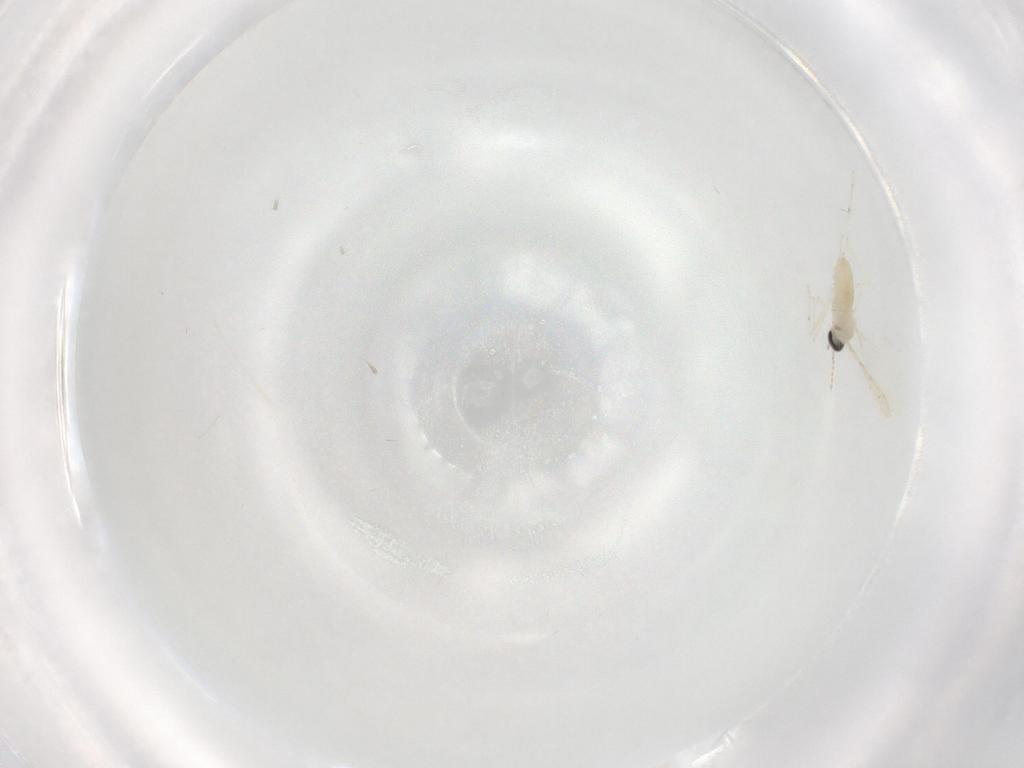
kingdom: Animalia
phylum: Arthropoda
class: Insecta
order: Diptera
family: Cecidomyiidae
